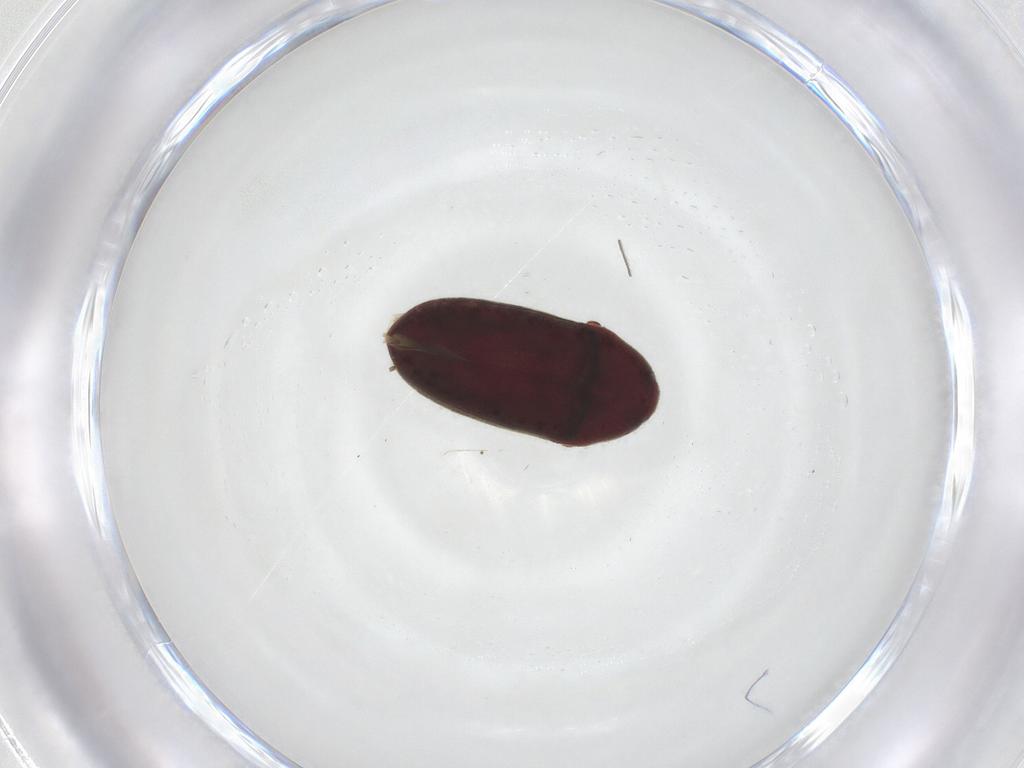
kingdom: Animalia
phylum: Arthropoda
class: Insecta
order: Coleoptera
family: Throscidae
